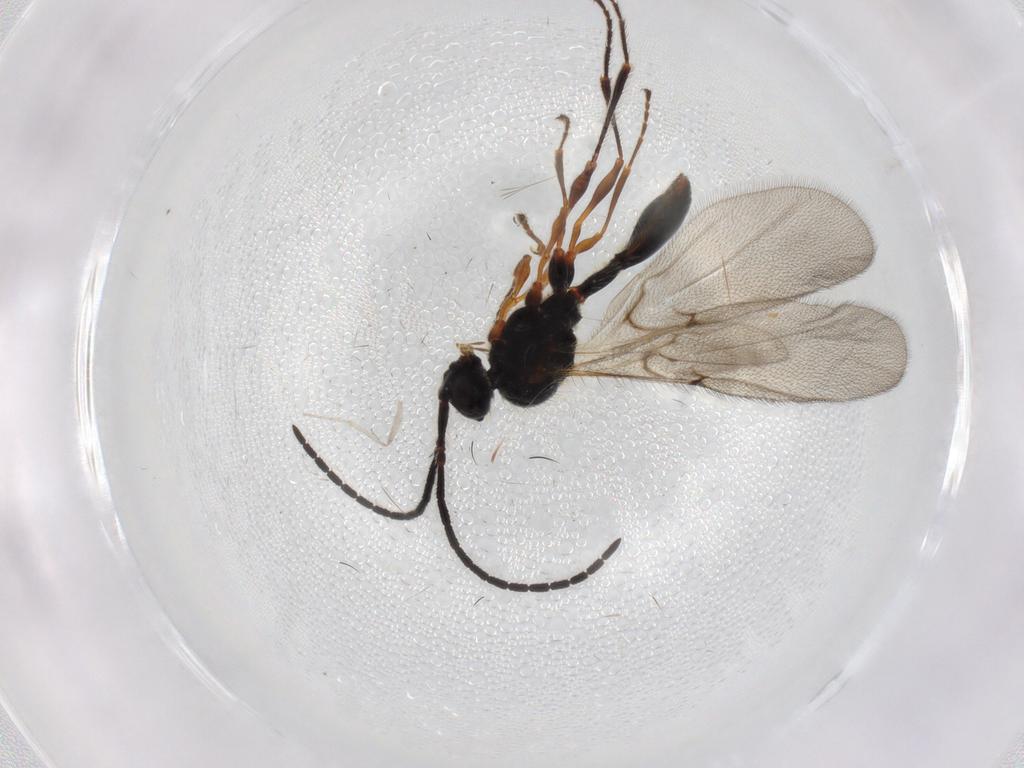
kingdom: Animalia
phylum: Arthropoda
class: Insecta
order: Hymenoptera
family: Diapriidae
